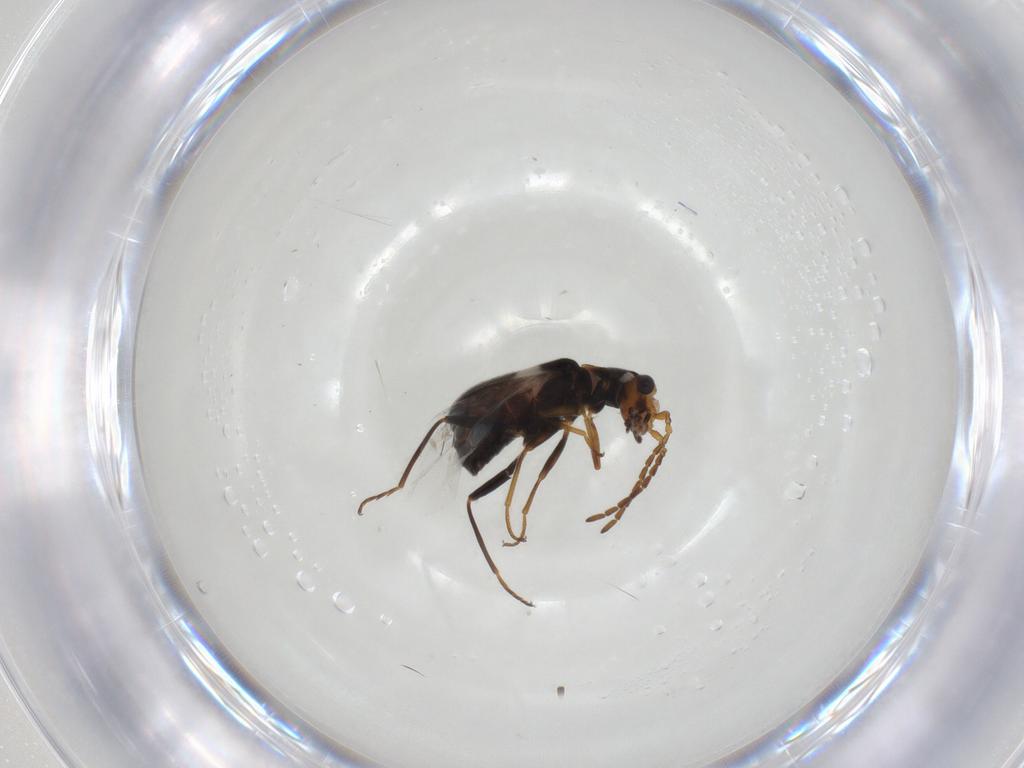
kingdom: Animalia
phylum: Arthropoda
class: Insecta
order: Coleoptera
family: Melyridae
